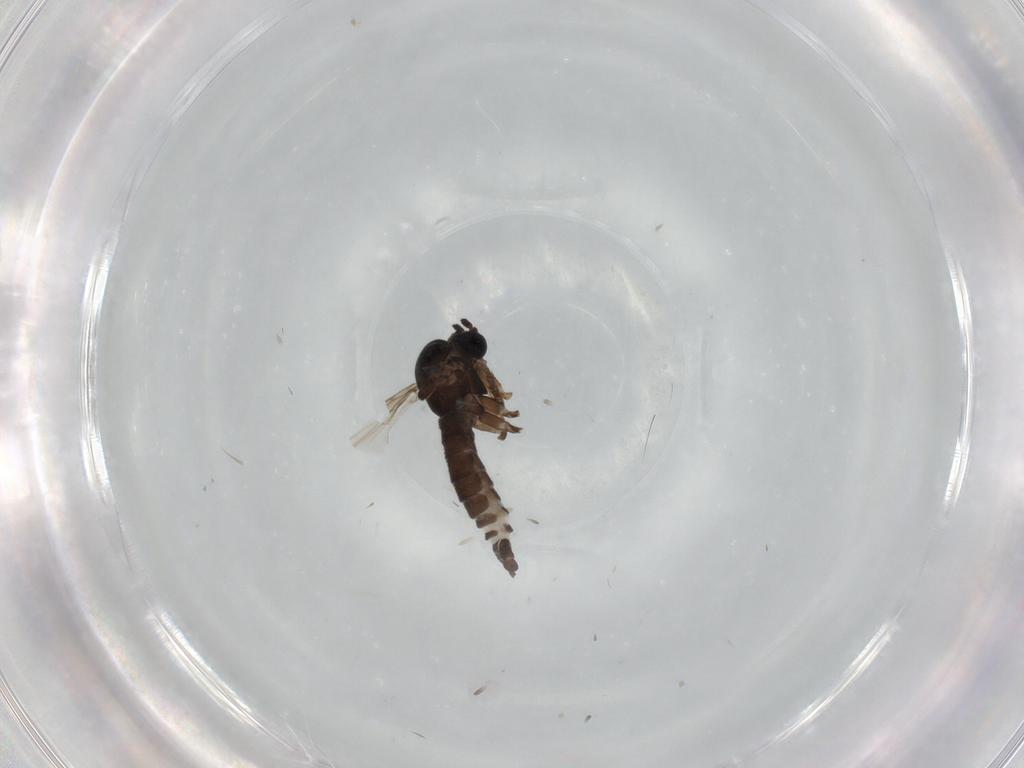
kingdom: Animalia
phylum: Arthropoda
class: Insecta
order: Diptera
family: Sciaridae
